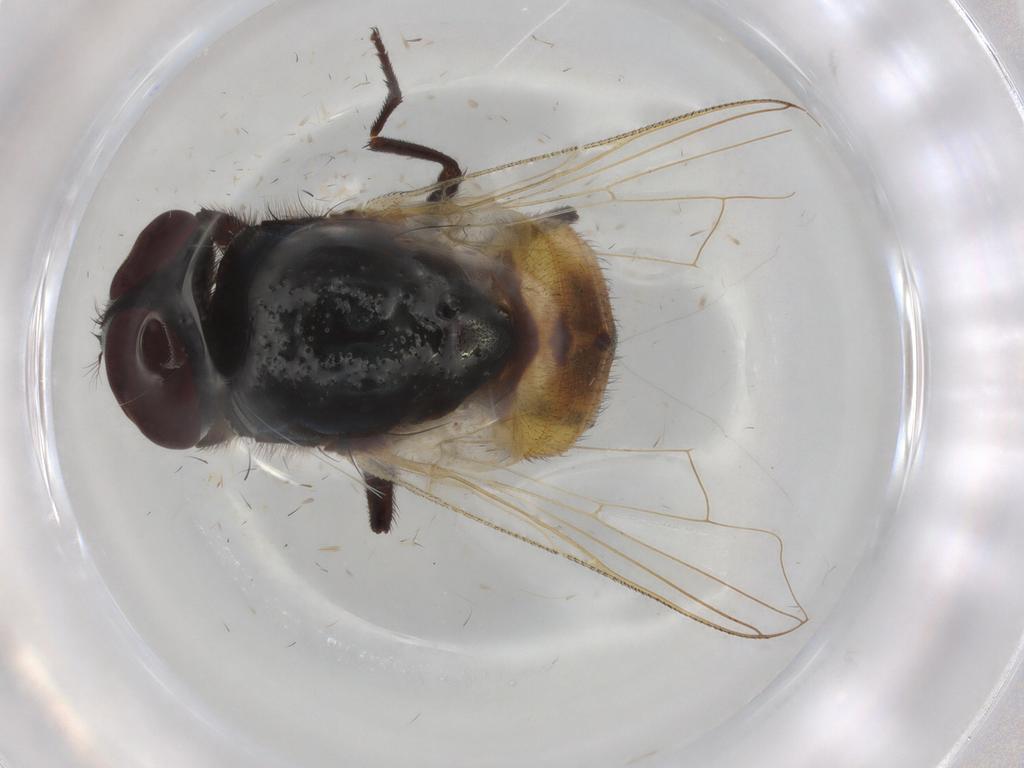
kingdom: Animalia
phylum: Arthropoda
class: Insecta
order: Diptera
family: Muscidae
